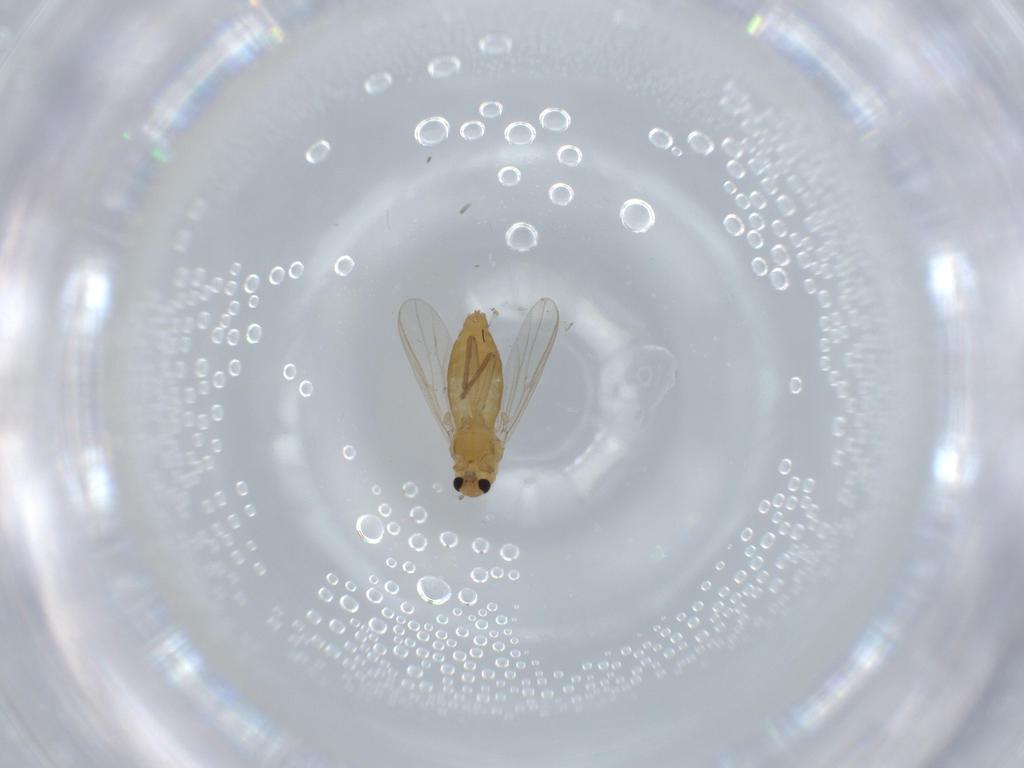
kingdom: Animalia
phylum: Arthropoda
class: Insecta
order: Diptera
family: Chironomidae
